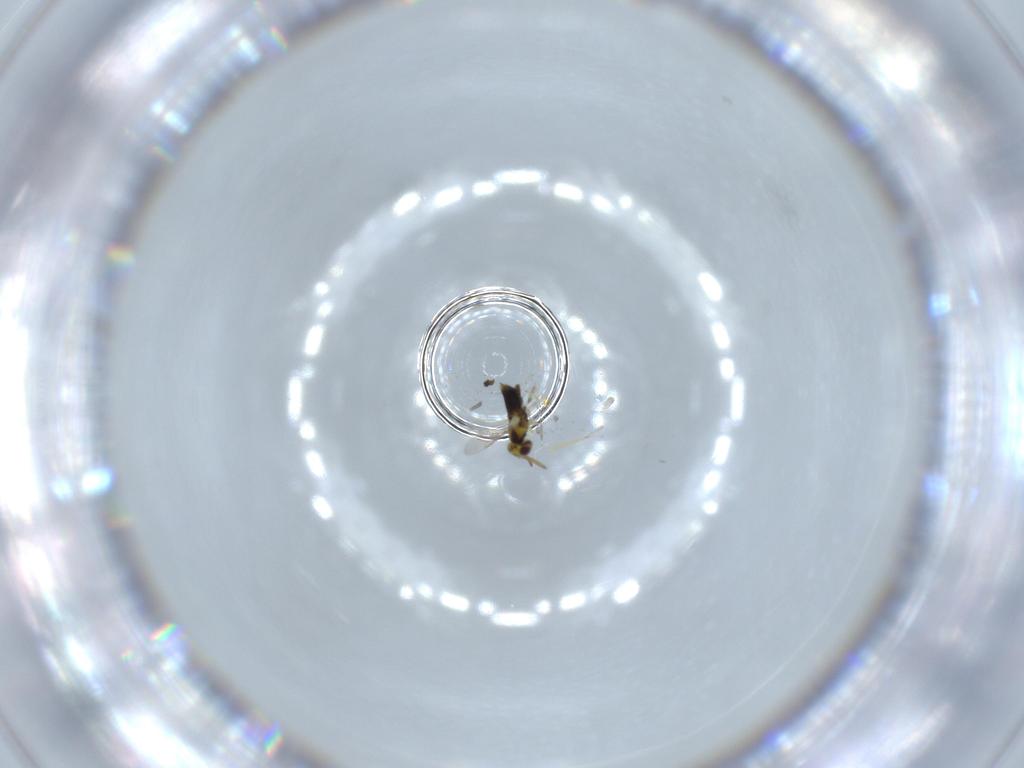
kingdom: Animalia
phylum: Arthropoda
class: Insecta
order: Hymenoptera
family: Aphelinidae
